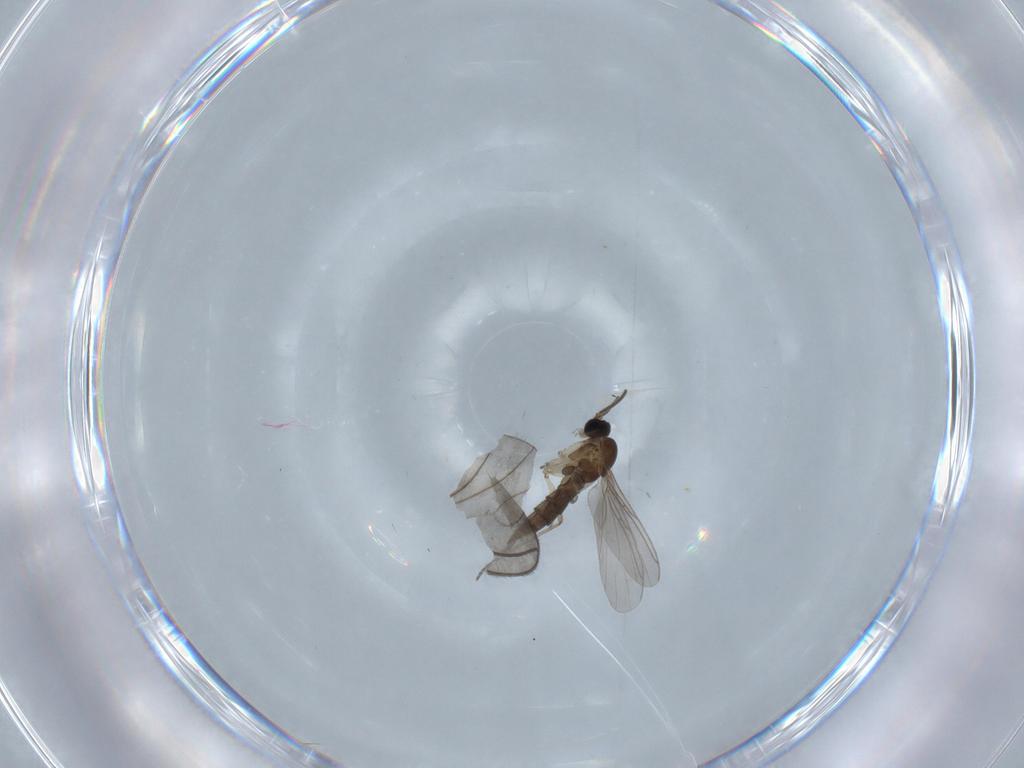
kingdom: Animalia
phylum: Arthropoda
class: Insecta
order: Diptera
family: Sciaridae
